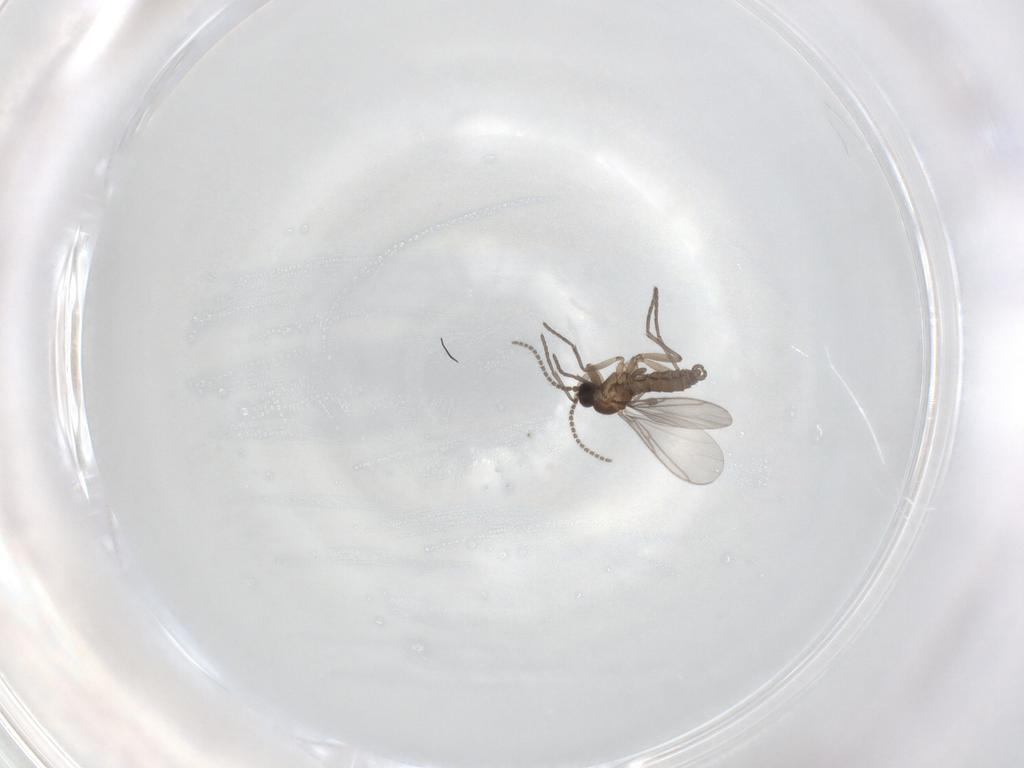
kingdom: Animalia
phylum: Arthropoda
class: Insecta
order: Diptera
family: Sciaridae
